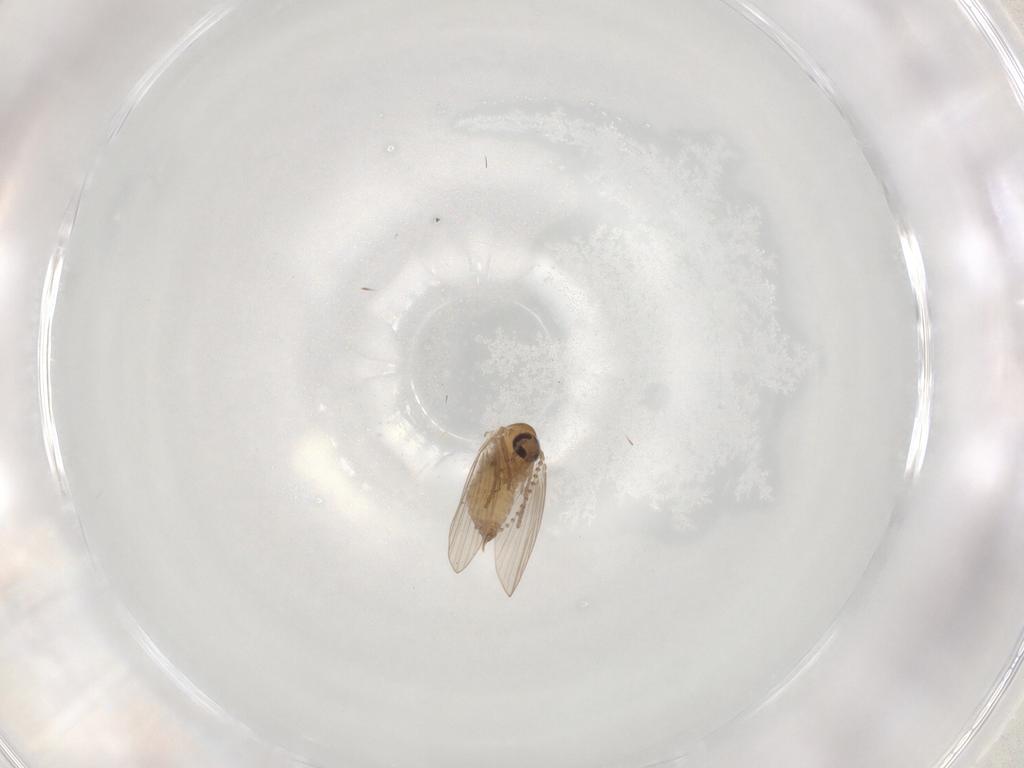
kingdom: Animalia
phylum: Arthropoda
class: Insecta
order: Diptera
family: Psychodidae
